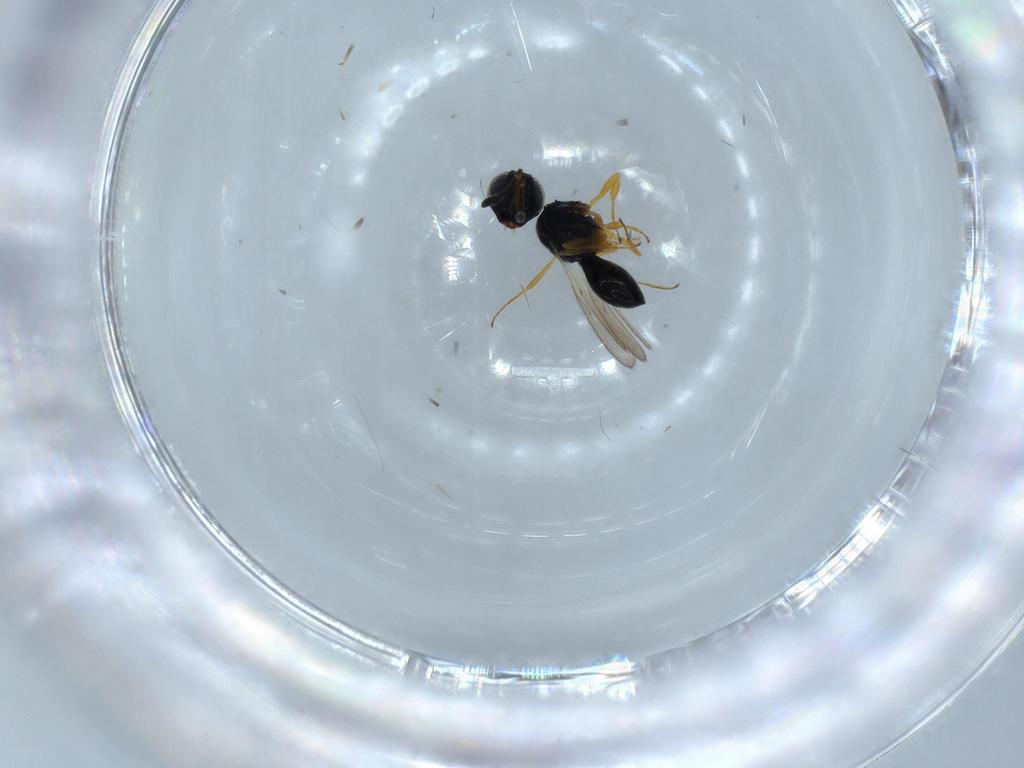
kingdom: Animalia
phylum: Arthropoda
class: Insecta
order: Hymenoptera
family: Scelionidae
